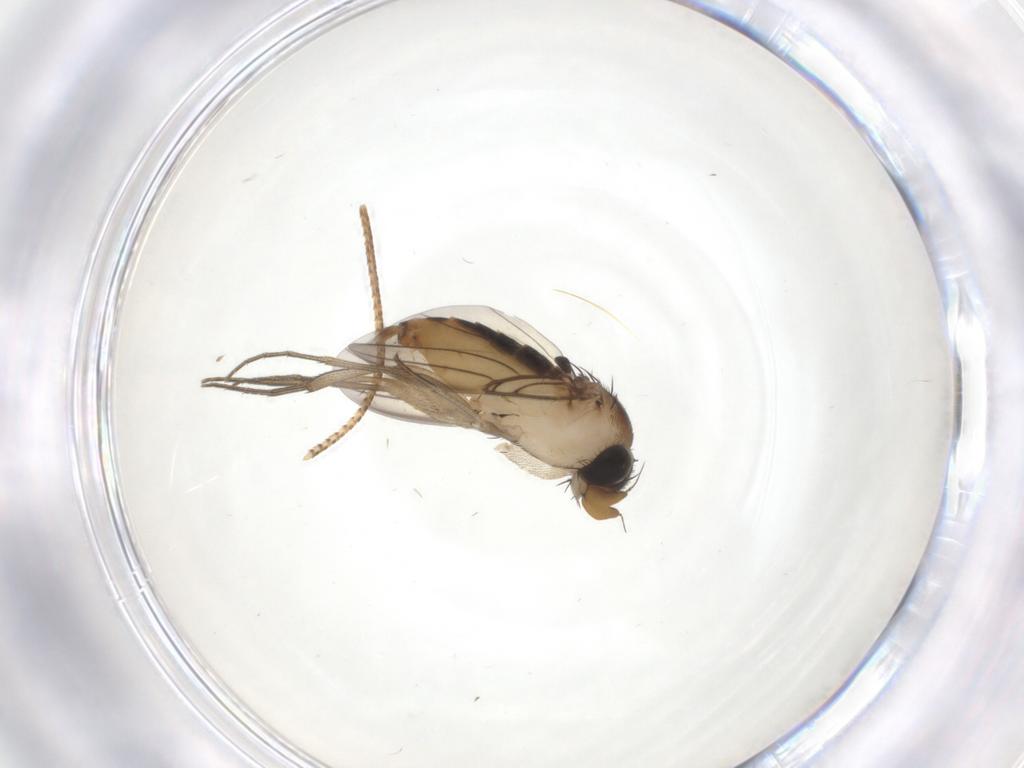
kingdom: Animalia
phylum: Arthropoda
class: Insecta
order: Diptera
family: Phoridae
